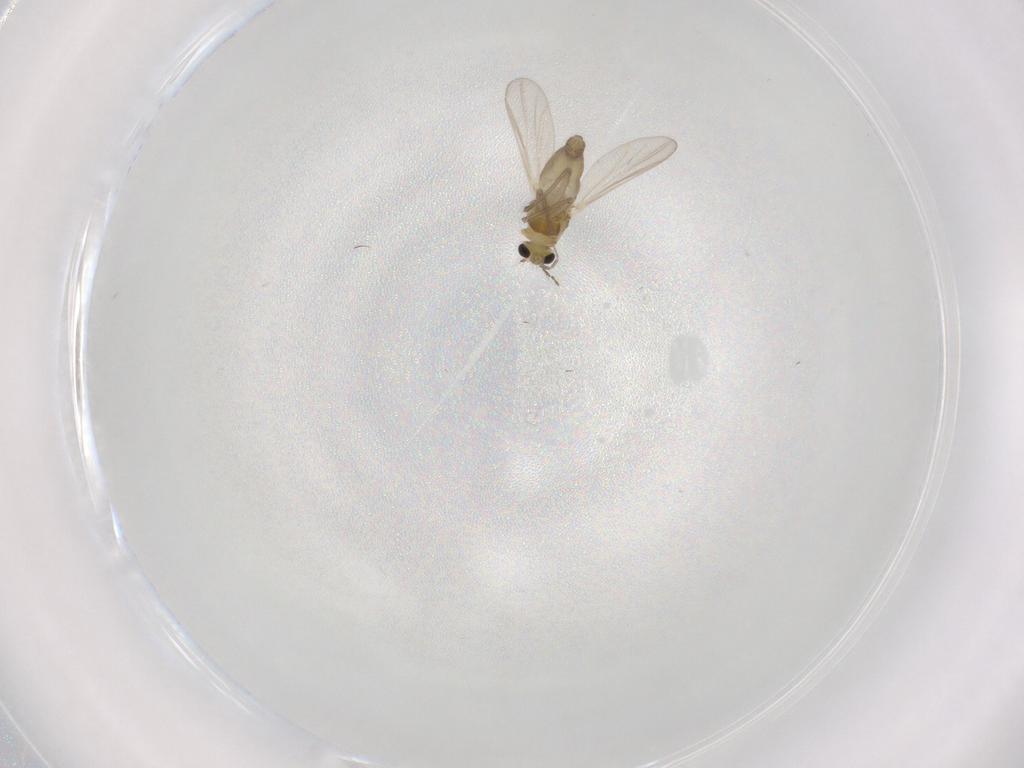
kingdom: Animalia
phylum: Arthropoda
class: Insecta
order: Diptera
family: Chironomidae
